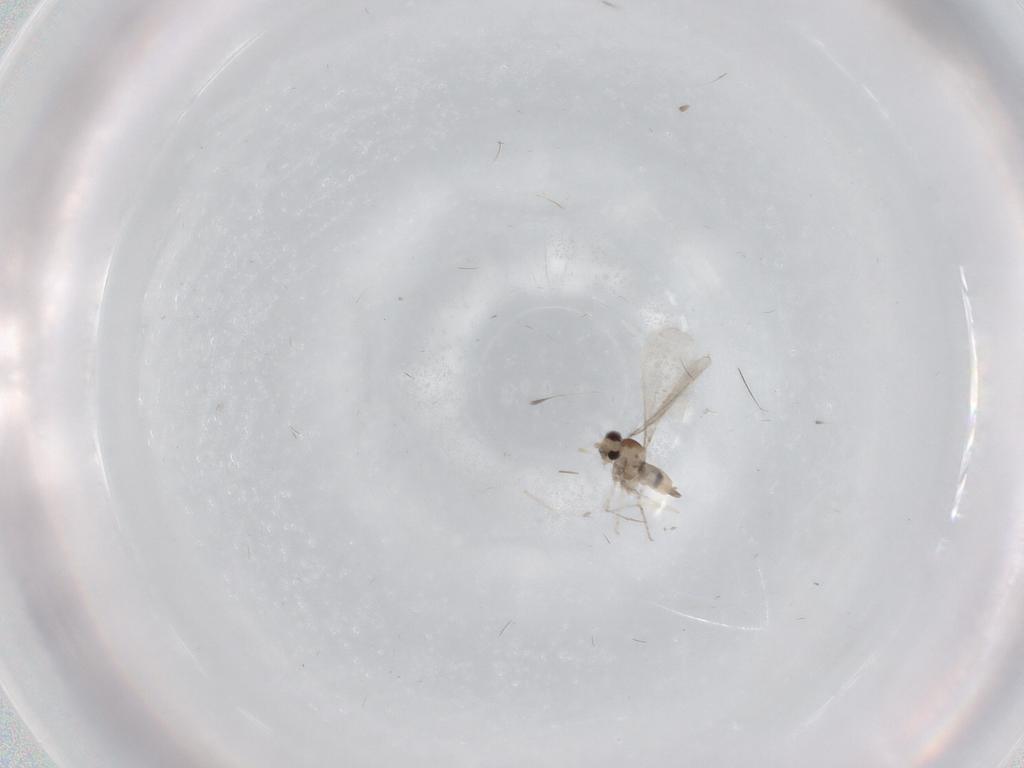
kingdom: Animalia
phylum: Arthropoda
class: Insecta
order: Diptera
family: Cecidomyiidae
